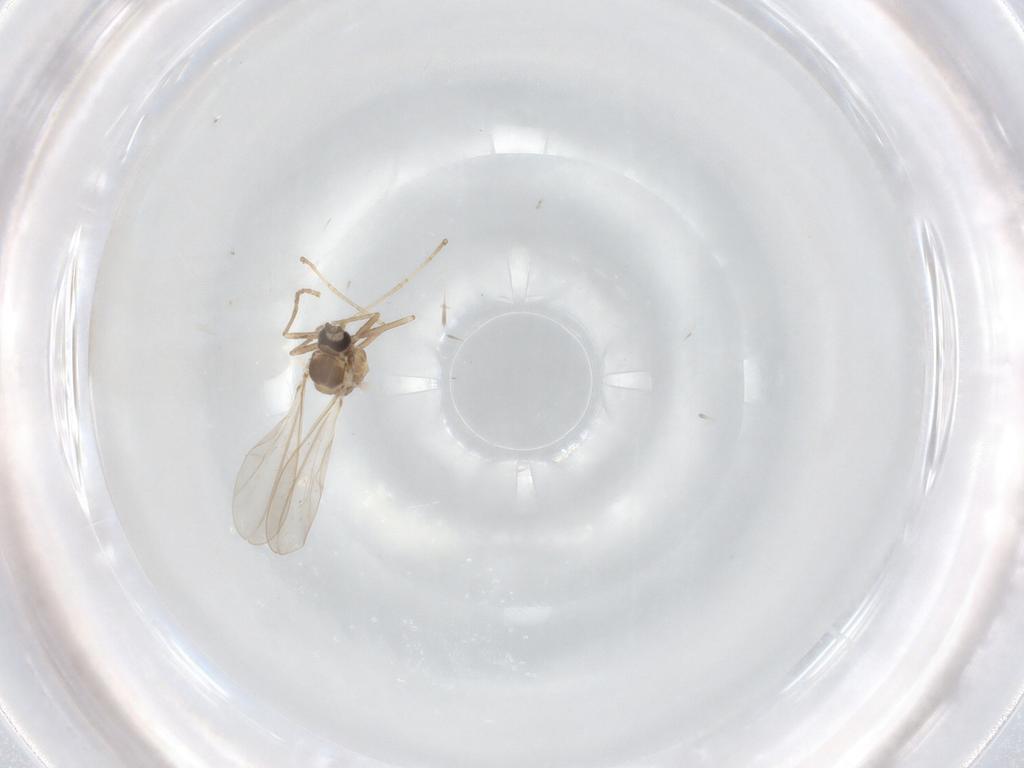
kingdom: Animalia
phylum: Arthropoda
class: Insecta
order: Diptera
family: Cecidomyiidae
